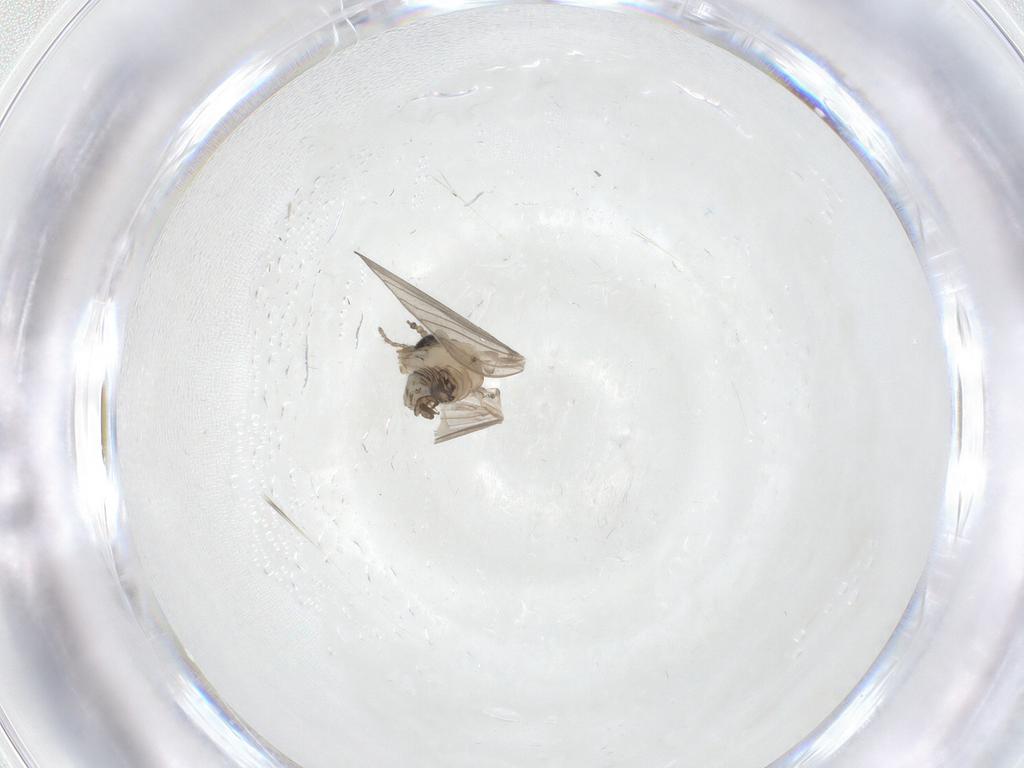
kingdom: Animalia
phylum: Arthropoda
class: Insecta
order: Diptera
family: Psychodidae
